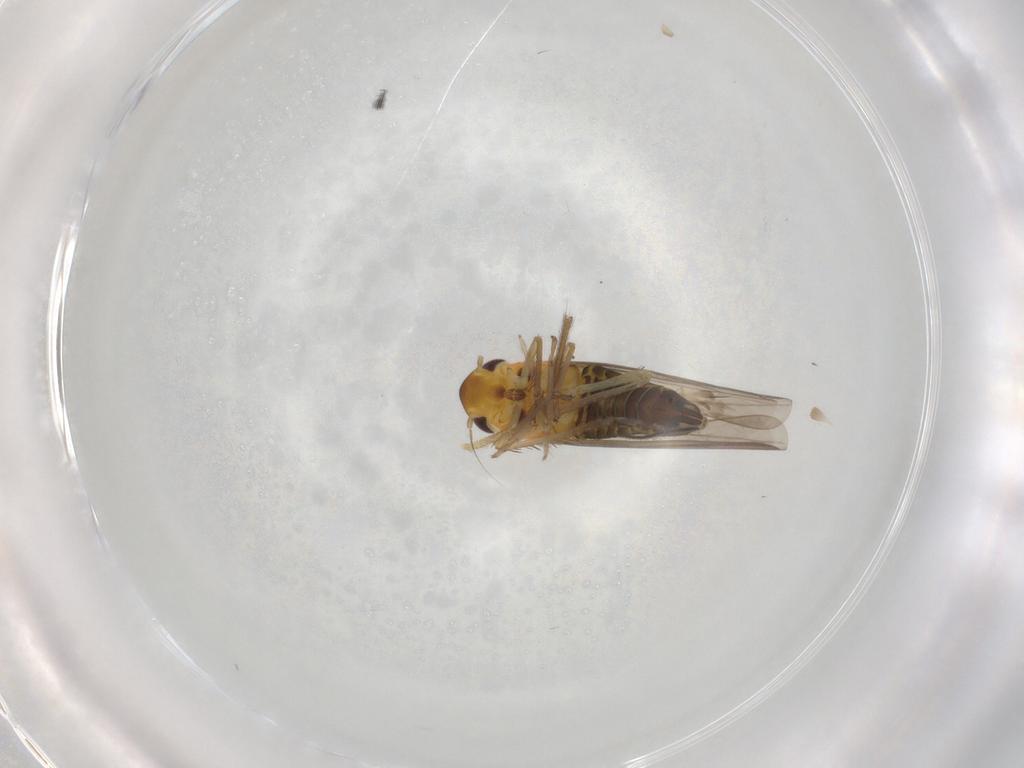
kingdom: Animalia
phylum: Arthropoda
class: Insecta
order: Hemiptera
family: Cicadellidae
